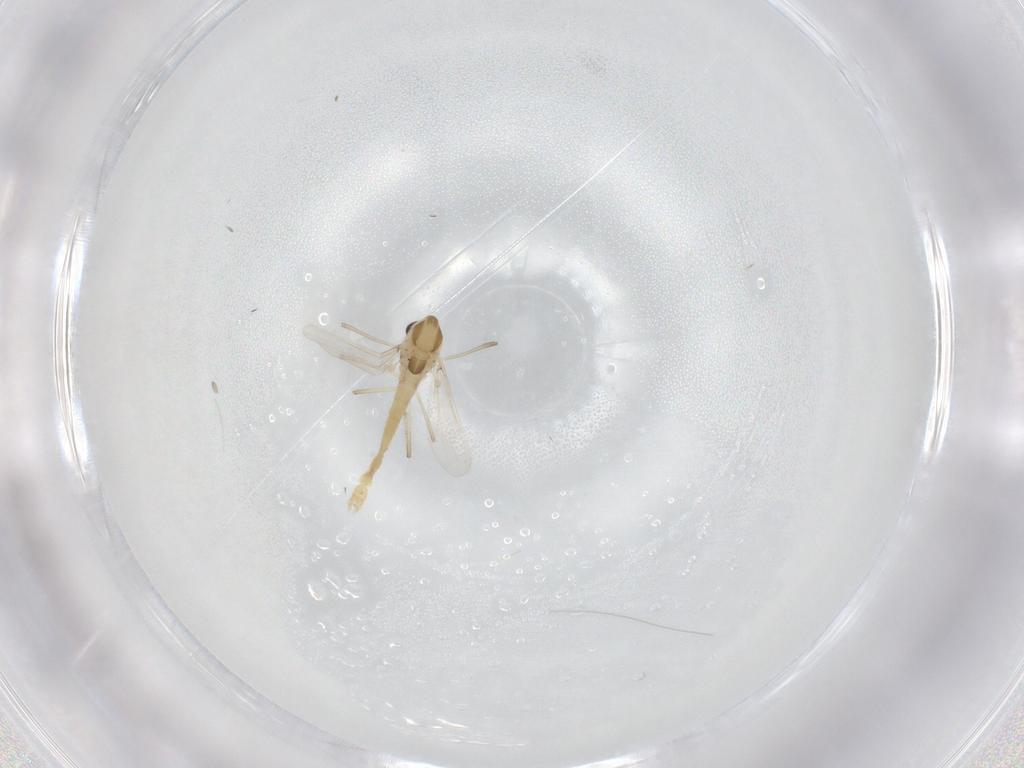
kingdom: Animalia
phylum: Arthropoda
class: Insecta
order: Diptera
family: Chironomidae
